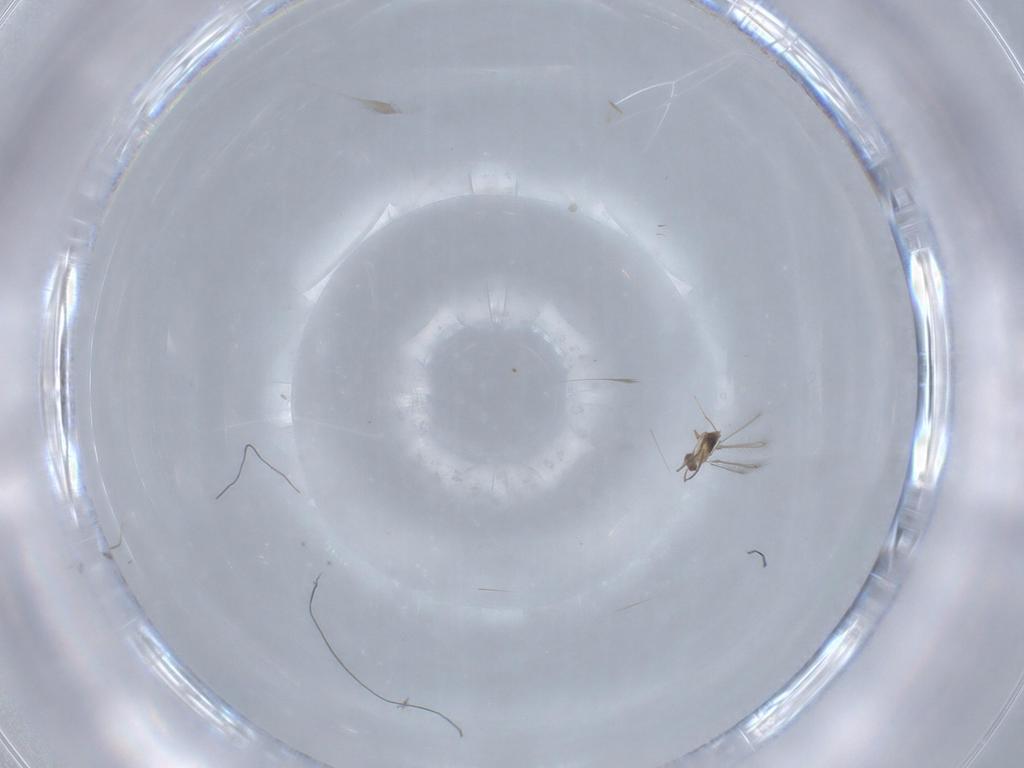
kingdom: Animalia
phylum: Arthropoda
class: Insecta
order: Hymenoptera
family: Mymaridae
